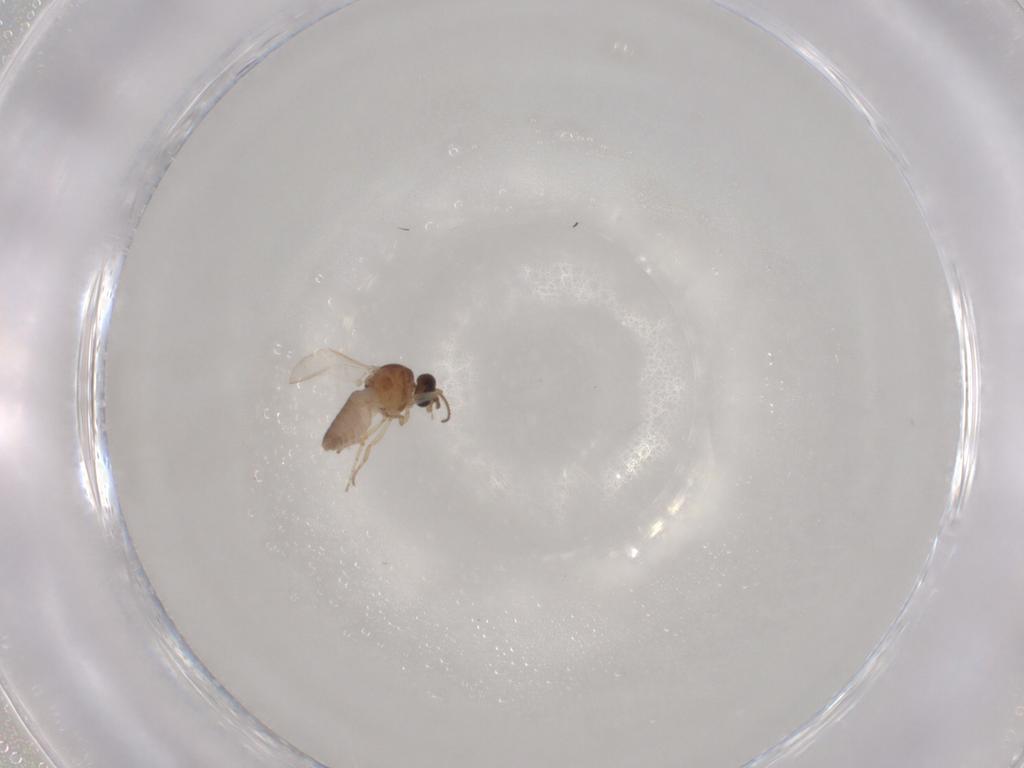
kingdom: Animalia
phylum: Arthropoda
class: Insecta
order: Diptera
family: Ceratopogonidae
